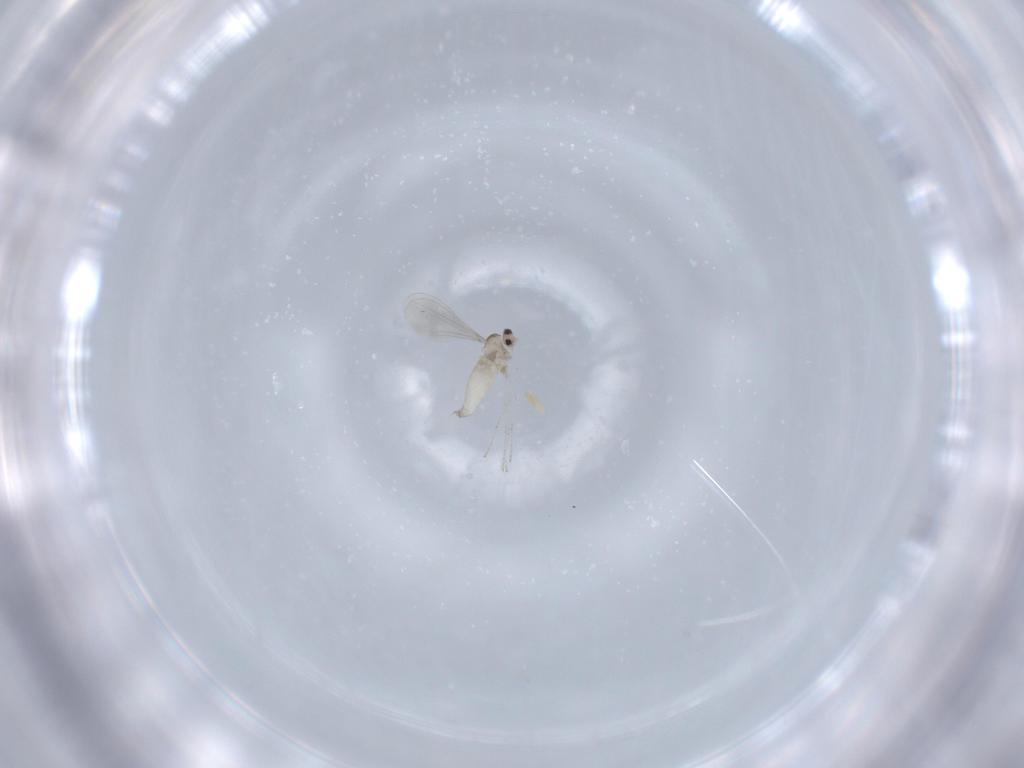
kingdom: Animalia
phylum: Arthropoda
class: Insecta
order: Diptera
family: Cecidomyiidae
